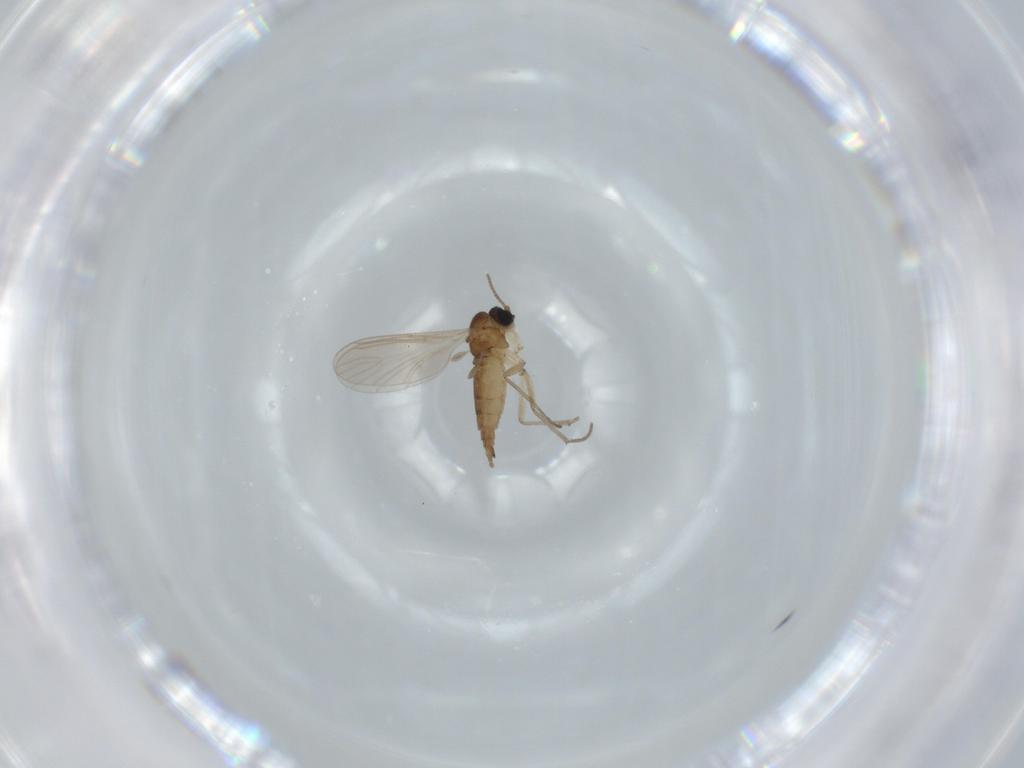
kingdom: Animalia
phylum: Arthropoda
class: Insecta
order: Diptera
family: Sciaridae
